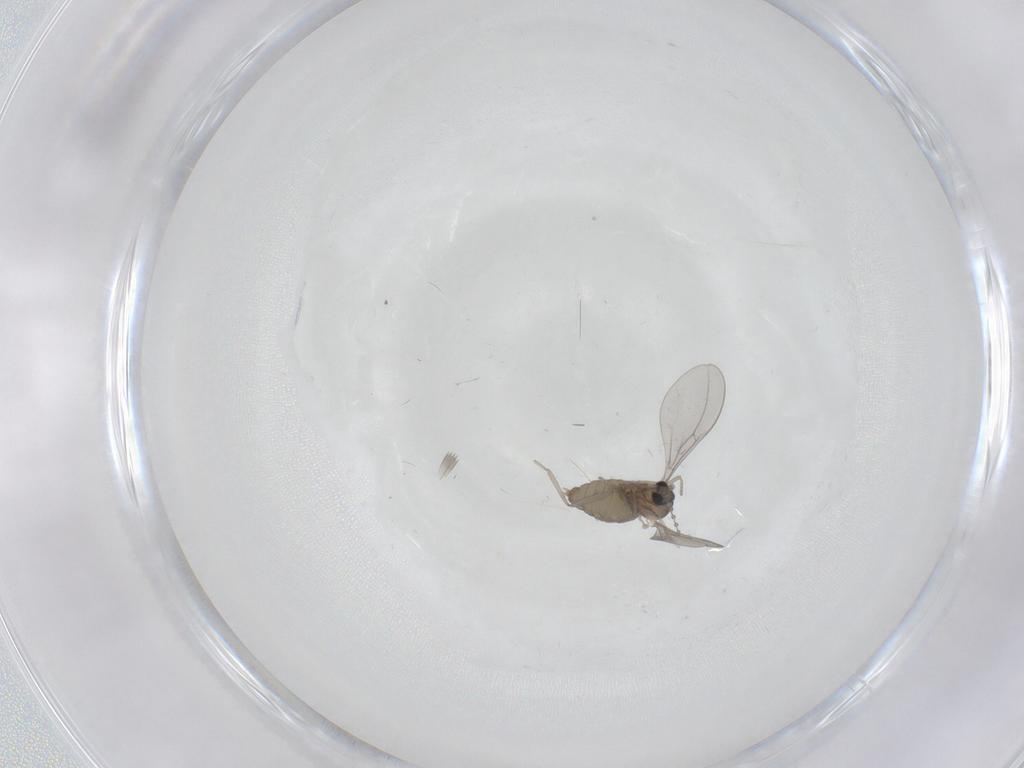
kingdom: Animalia
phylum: Arthropoda
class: Insecta
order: Diptera
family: Cecidomyiidae
